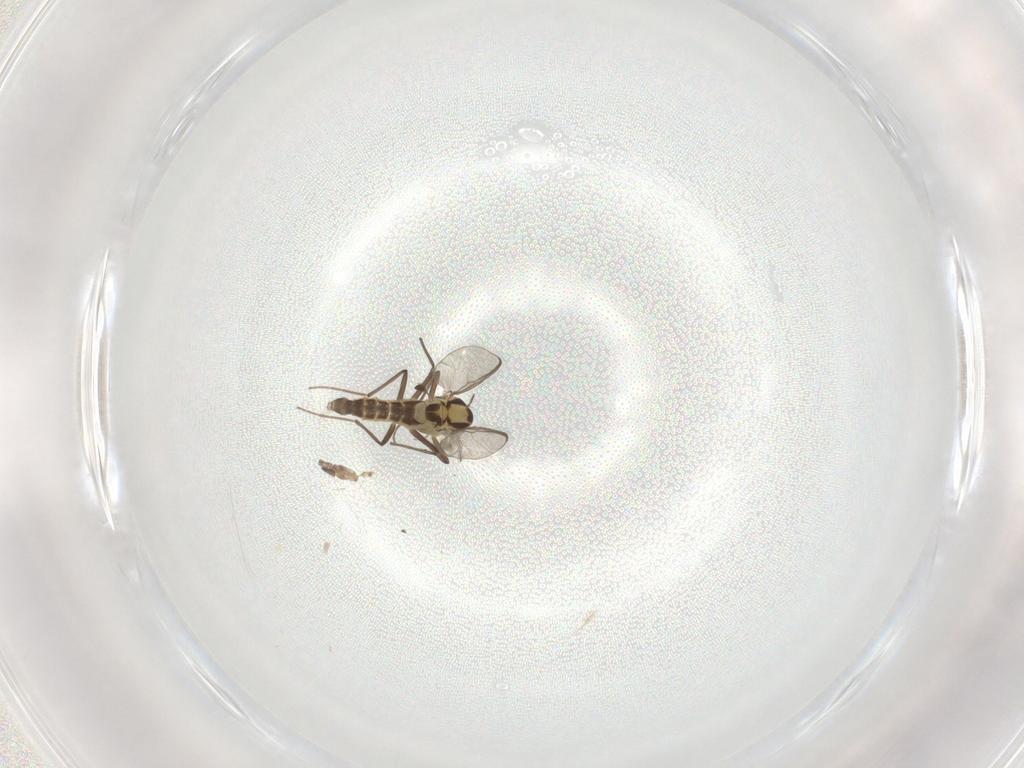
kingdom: Animalia
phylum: Arthropoda
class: Insecta
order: Diptera
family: Chironomidae
